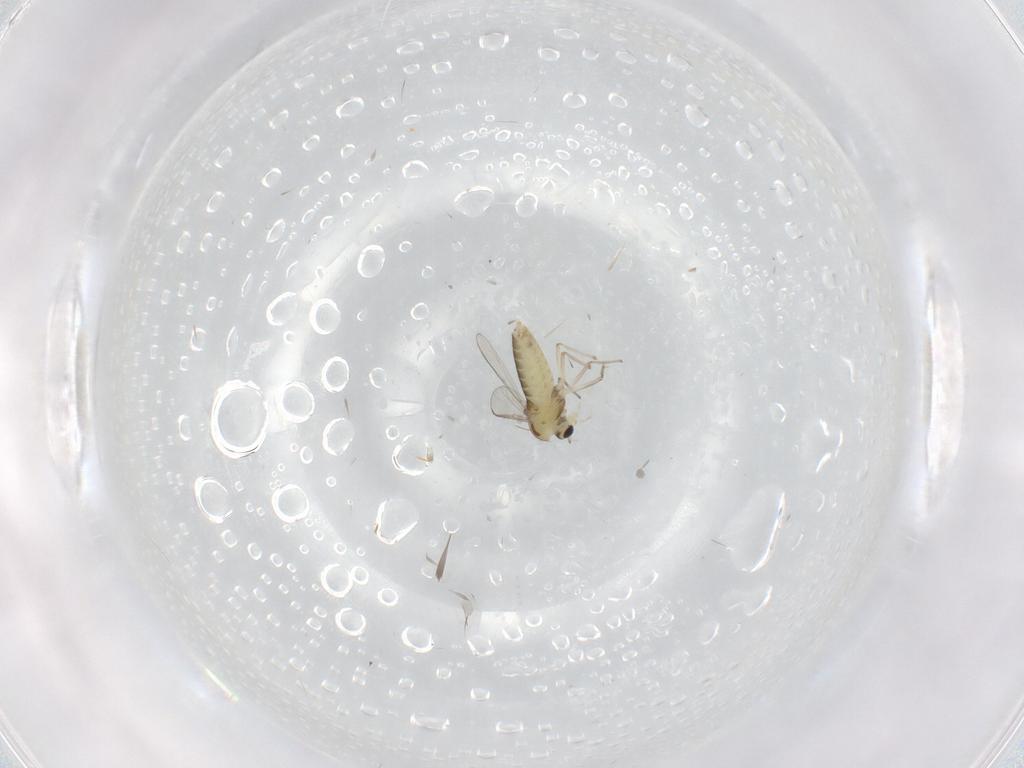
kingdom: Animalia
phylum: Arthropoda
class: Insecta
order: Diptera
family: Chironomidae
